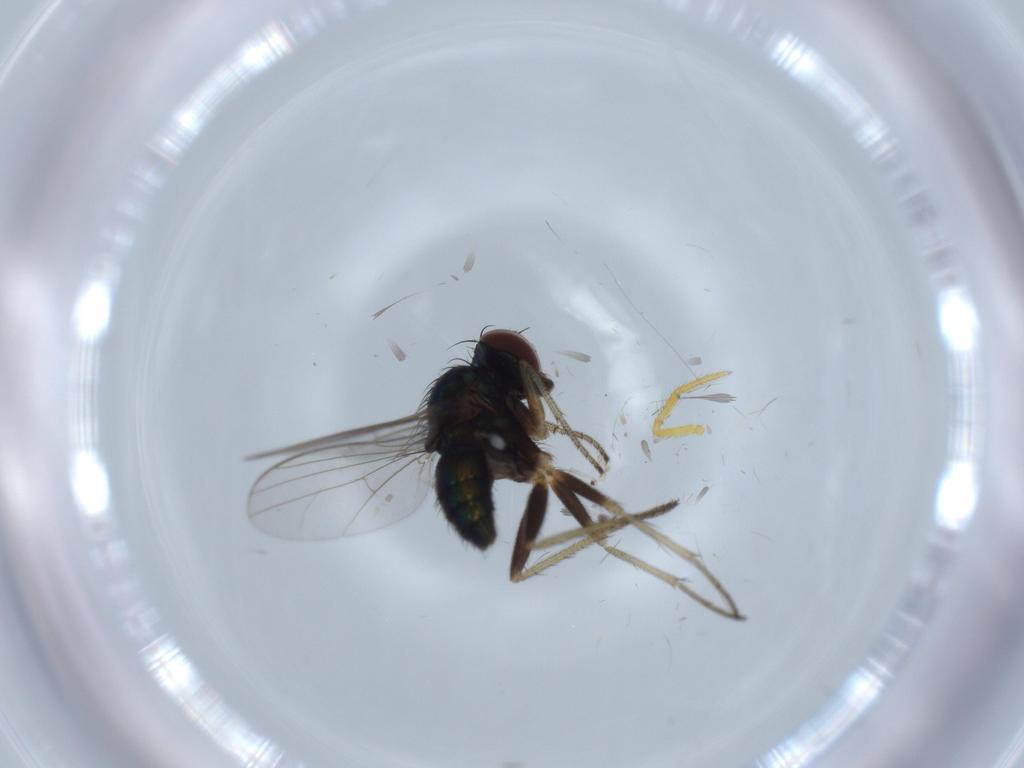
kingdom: Animalia
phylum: Arthropoda
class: Insecta
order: Diptera
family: Dolichopodidae
